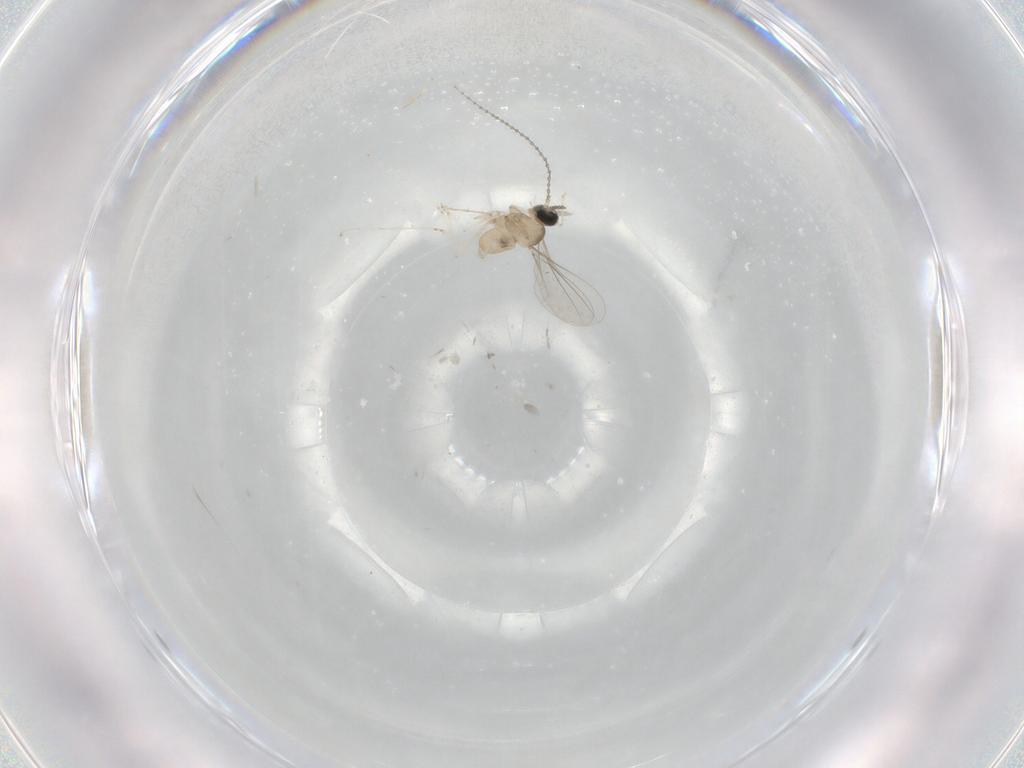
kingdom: Animalia
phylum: Arthropoda
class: Insecta
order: Diptera
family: Cecidomyiidae
